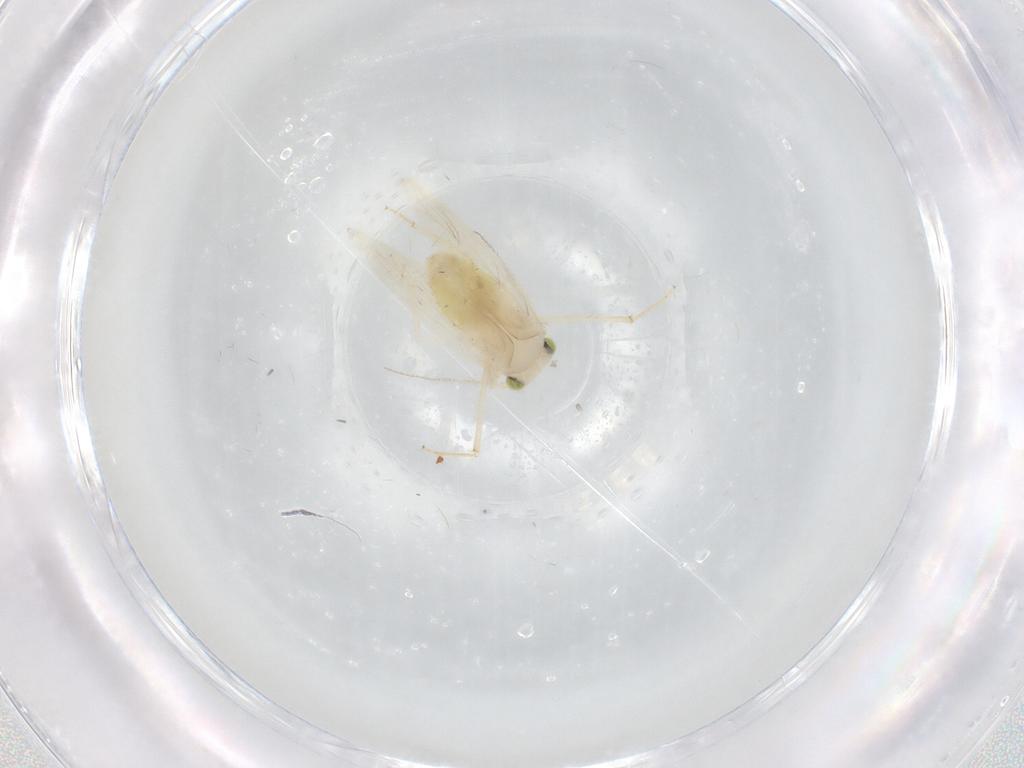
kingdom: Animalia
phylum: Arthropoda
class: Insecta
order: Psocodea
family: Lepidopsocidae
